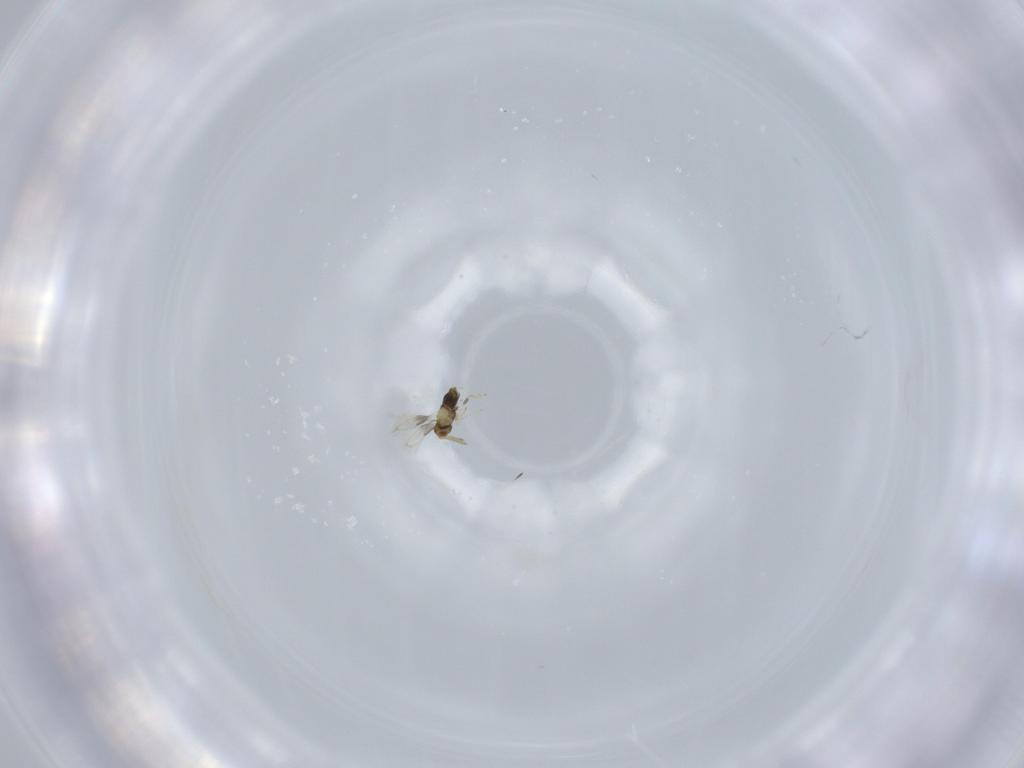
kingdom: Animalia
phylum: Arthropoda
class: Insecta
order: Hymenoptera
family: Aphelinidae
